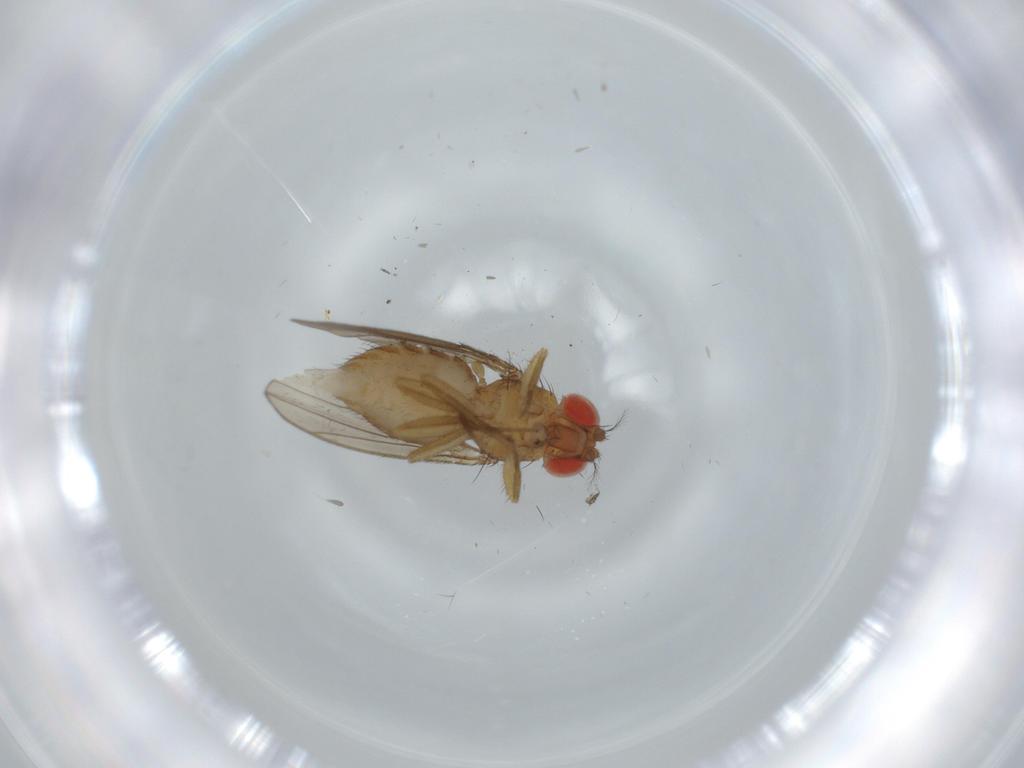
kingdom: Animalia
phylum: Arthropoda
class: Insecta
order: Diptera
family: Drosophilidae
